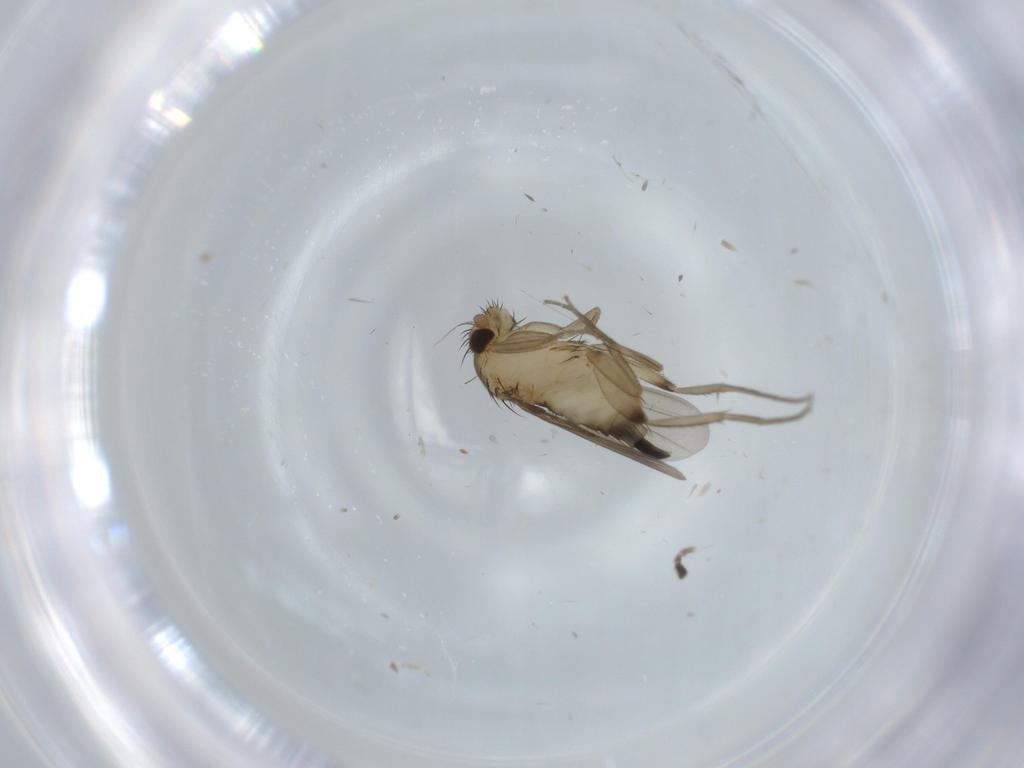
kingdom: Animalia
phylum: Arthropoda
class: Insecta
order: Diptera
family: Phoridae
